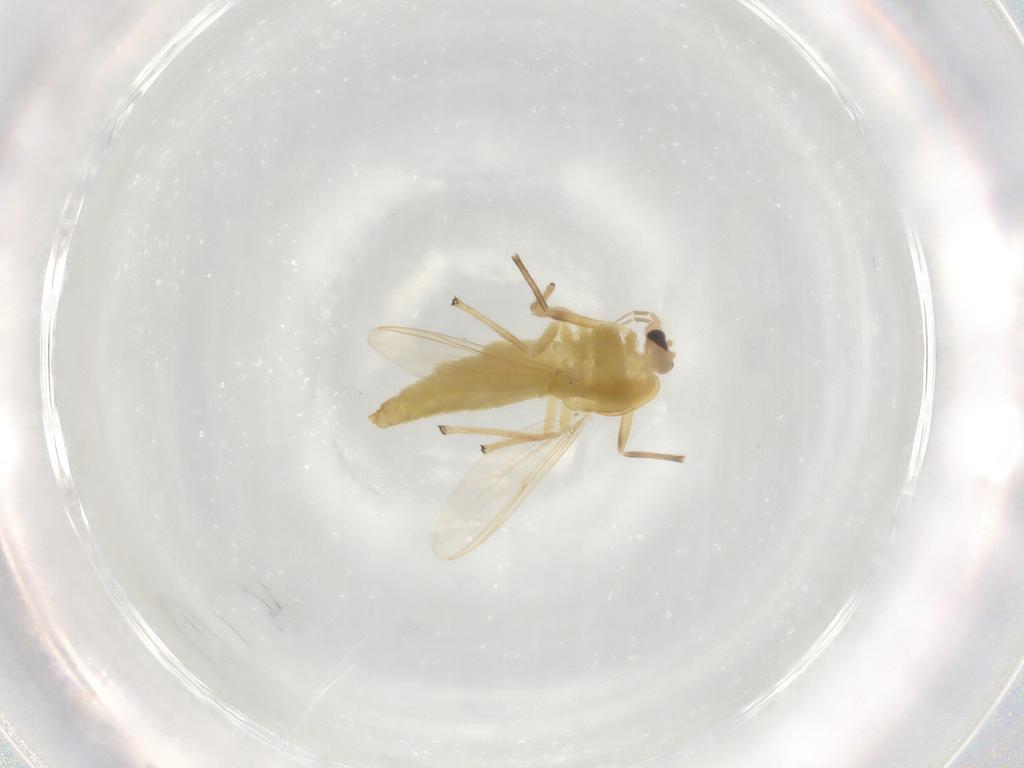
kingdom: Animalia
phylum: Arthropoda
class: Insecta
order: Diptera
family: Chironomidae
